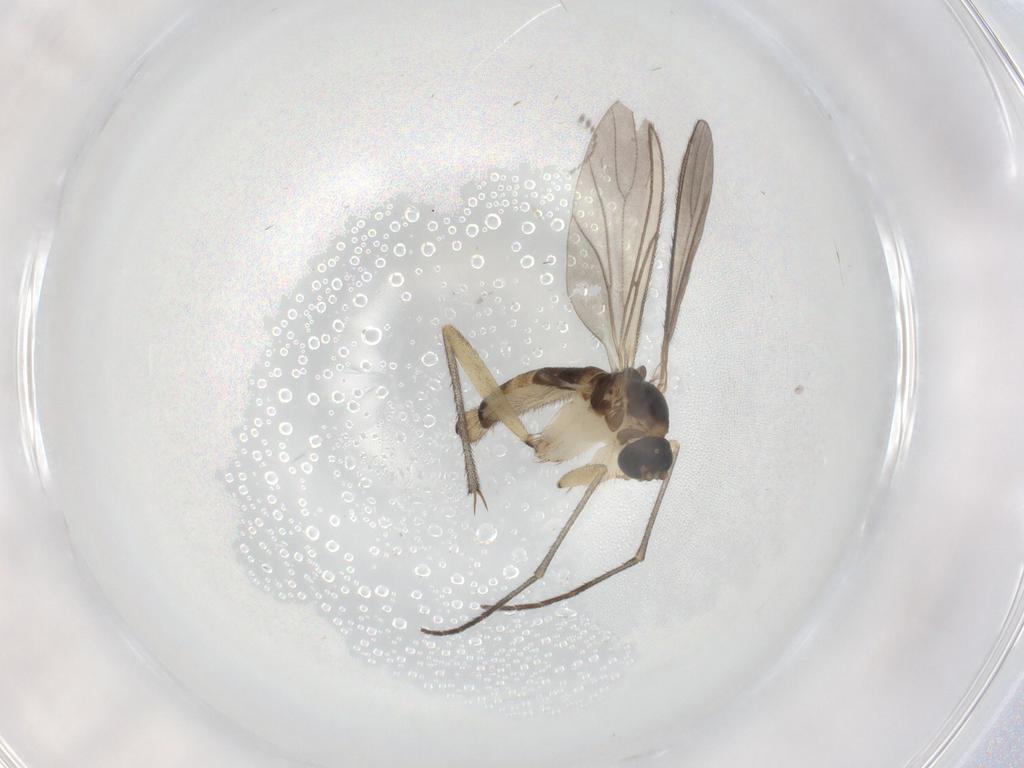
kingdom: Animalia
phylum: Arthropoda
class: Insecta
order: Diptera
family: Sciaridae
